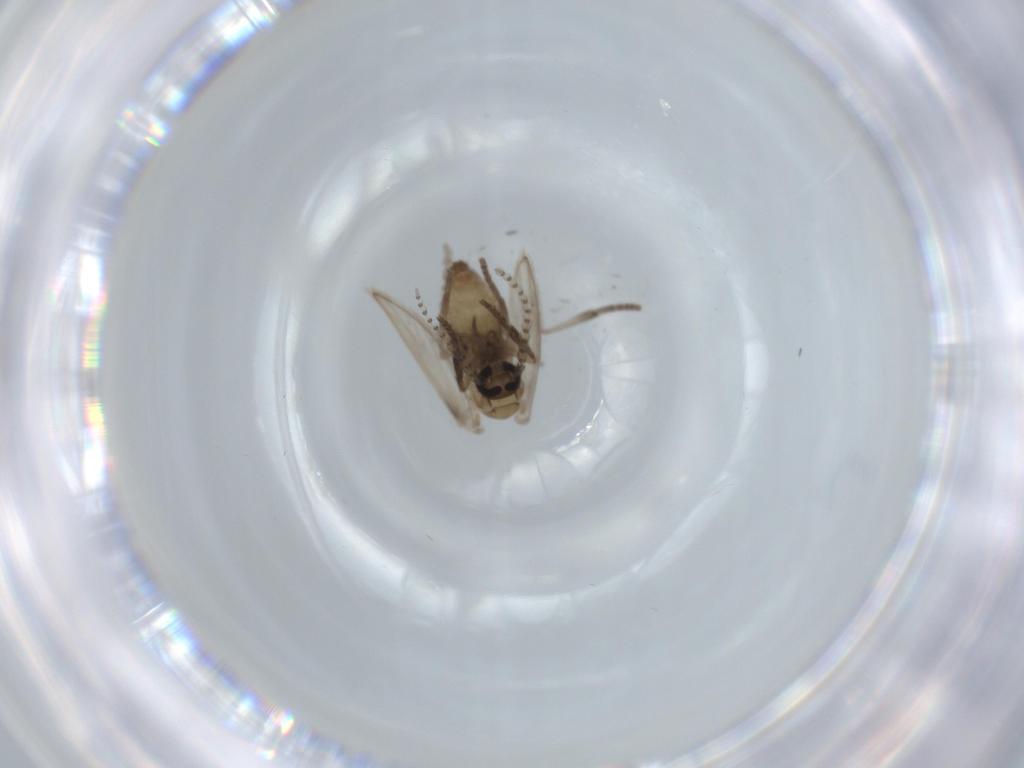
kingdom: Animalia
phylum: Arthropoda
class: Insecta
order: Diptera
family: Psychodidae
